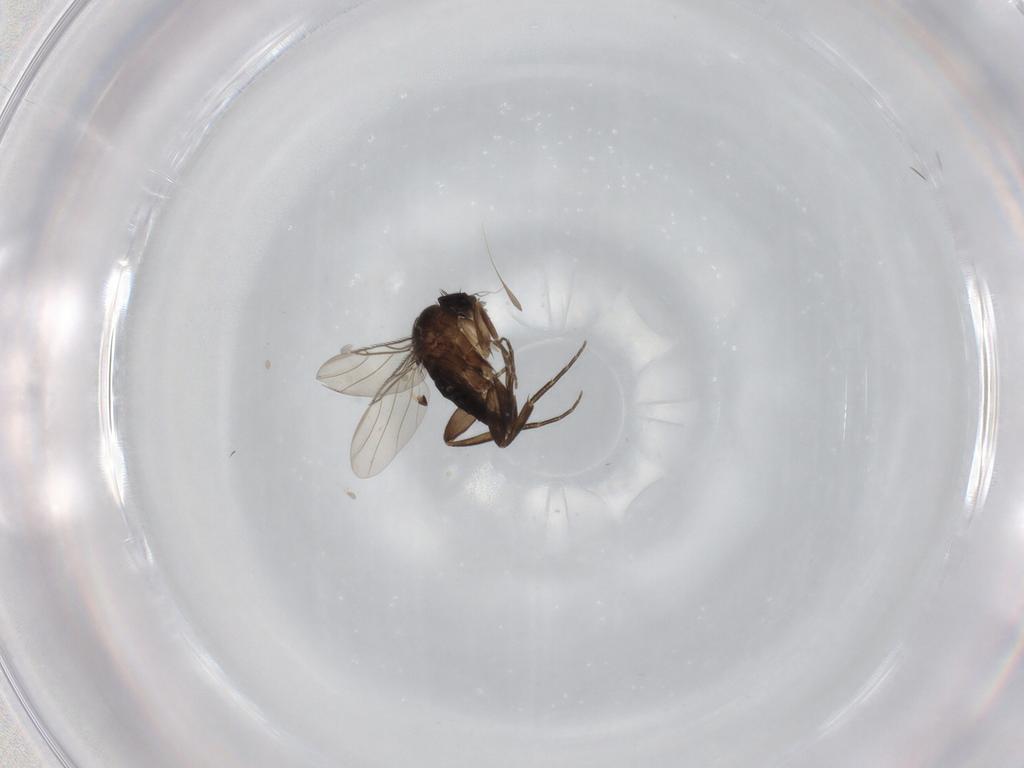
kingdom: Animalia
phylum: Arthropoda
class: Insecta
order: Diptera
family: Phoridae
